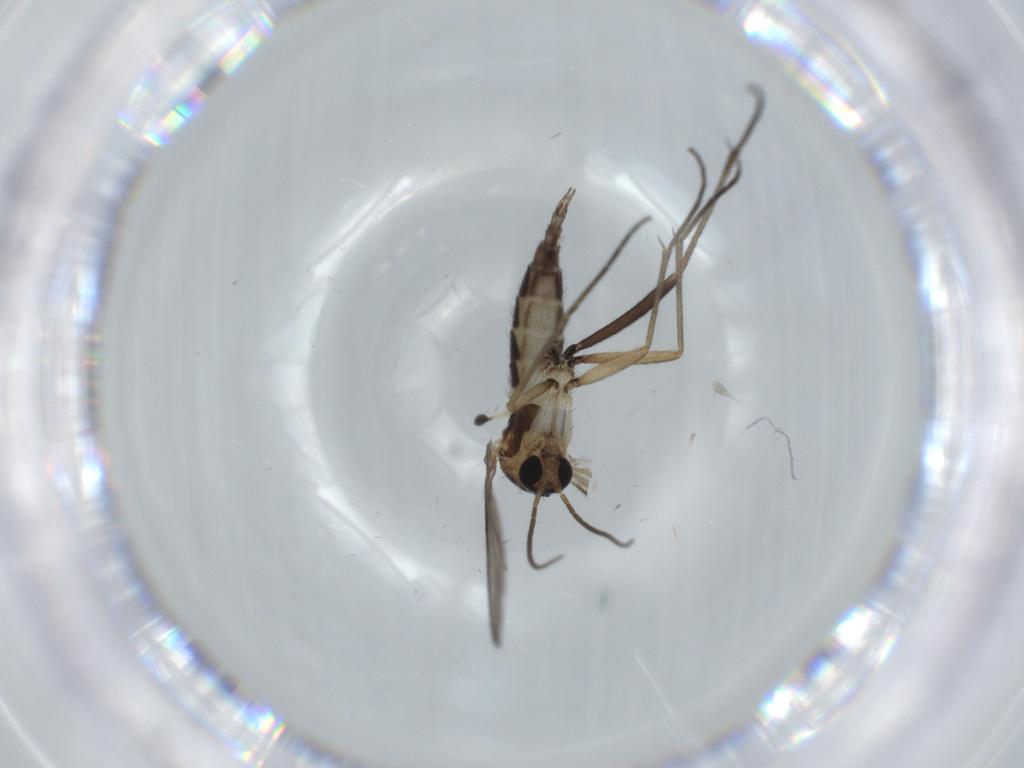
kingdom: Animalia
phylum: Arthropoda
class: Insecta
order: Diptera
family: Sciaridae
